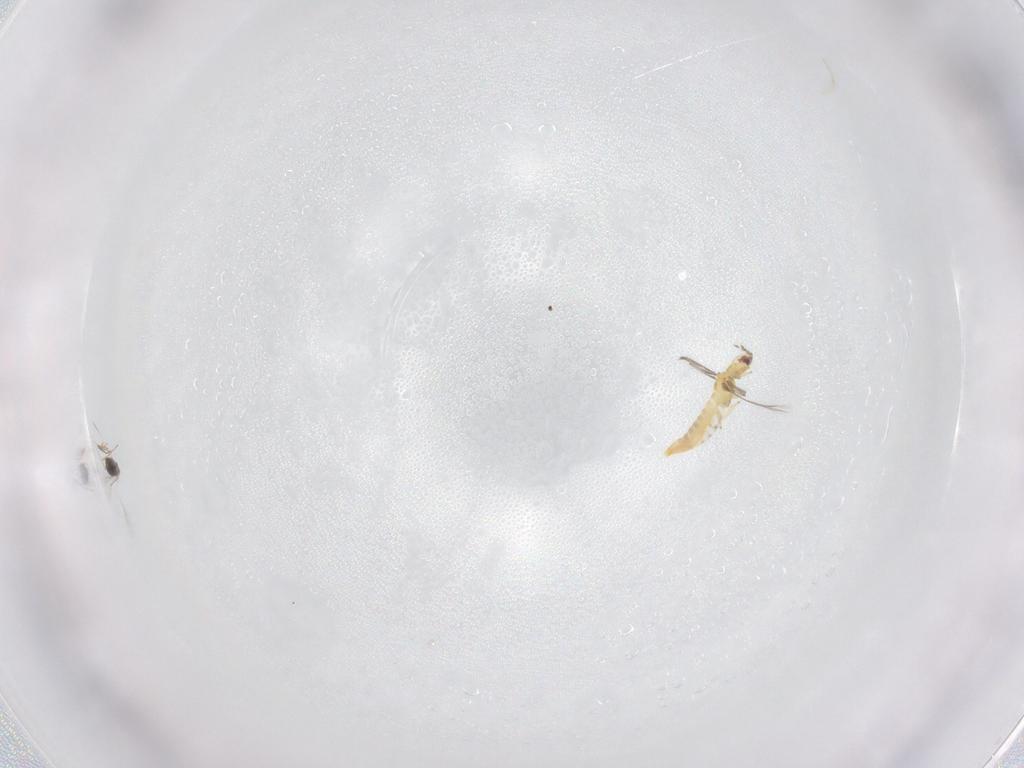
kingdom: Animalia
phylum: Arthropoda
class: Insecta
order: Thysanoptera
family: Thripidae
